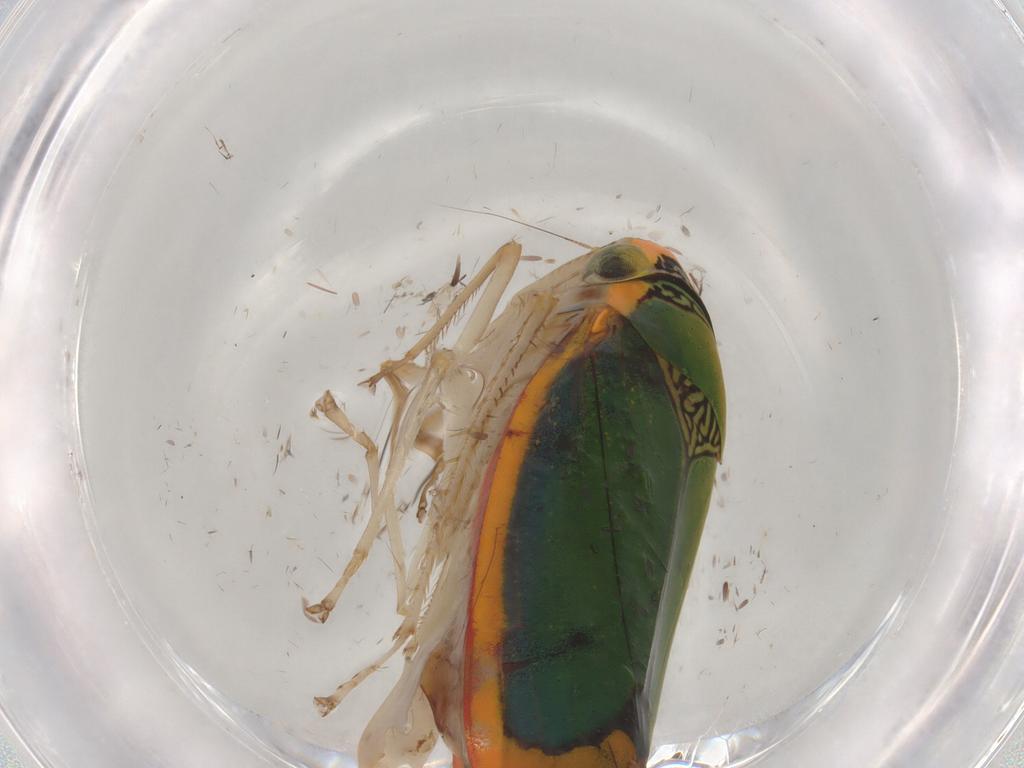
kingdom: Animalia
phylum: Arthropoda
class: Insecta
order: Hemiptera
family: Cicadellidae
